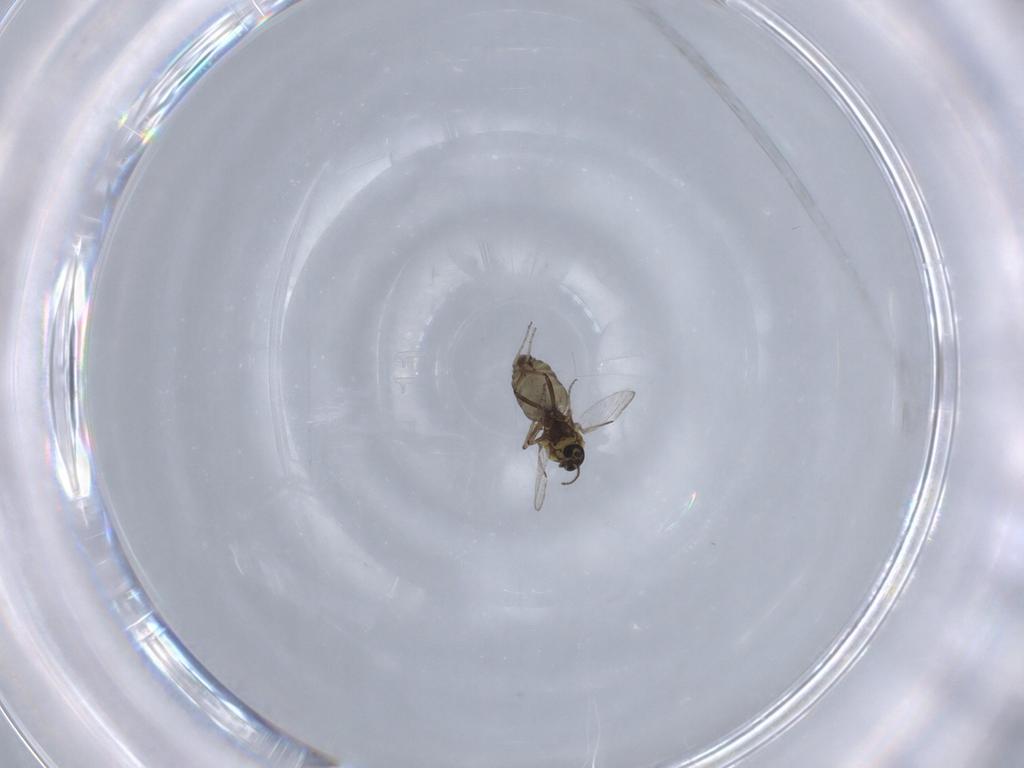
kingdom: Animalia
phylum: Arthropoda
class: Insecta
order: Diptera
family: Ceratopogonidae
